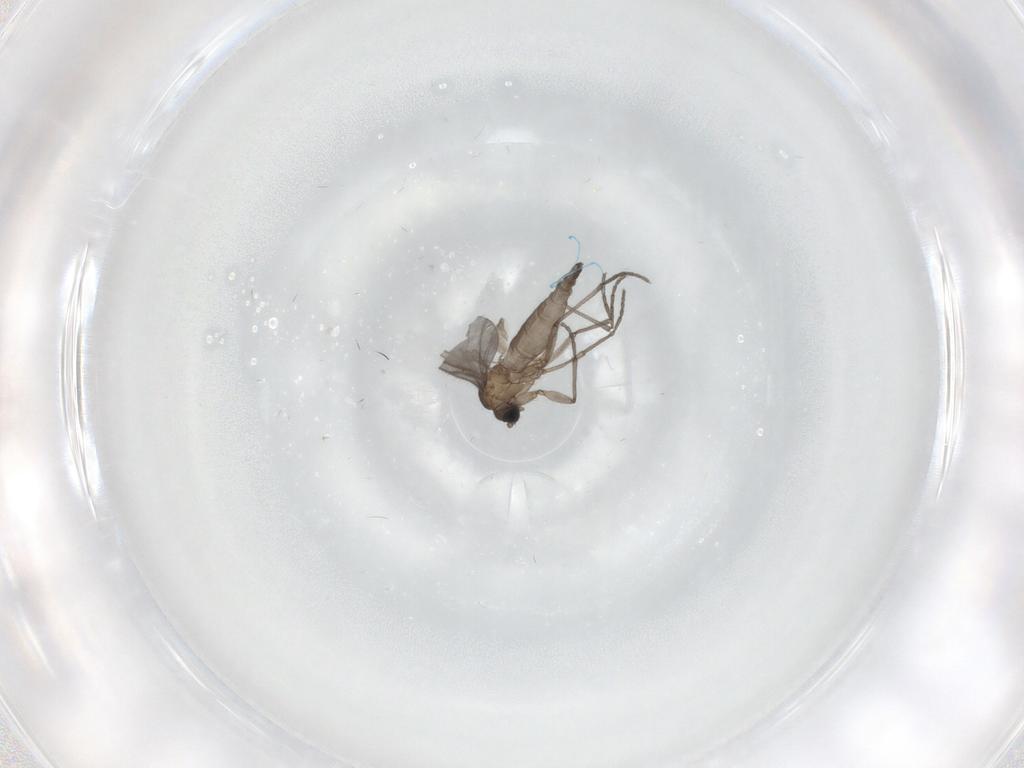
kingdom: Animalia
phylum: Arthropoda
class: Insecta
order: Diptera
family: Sciaridae
